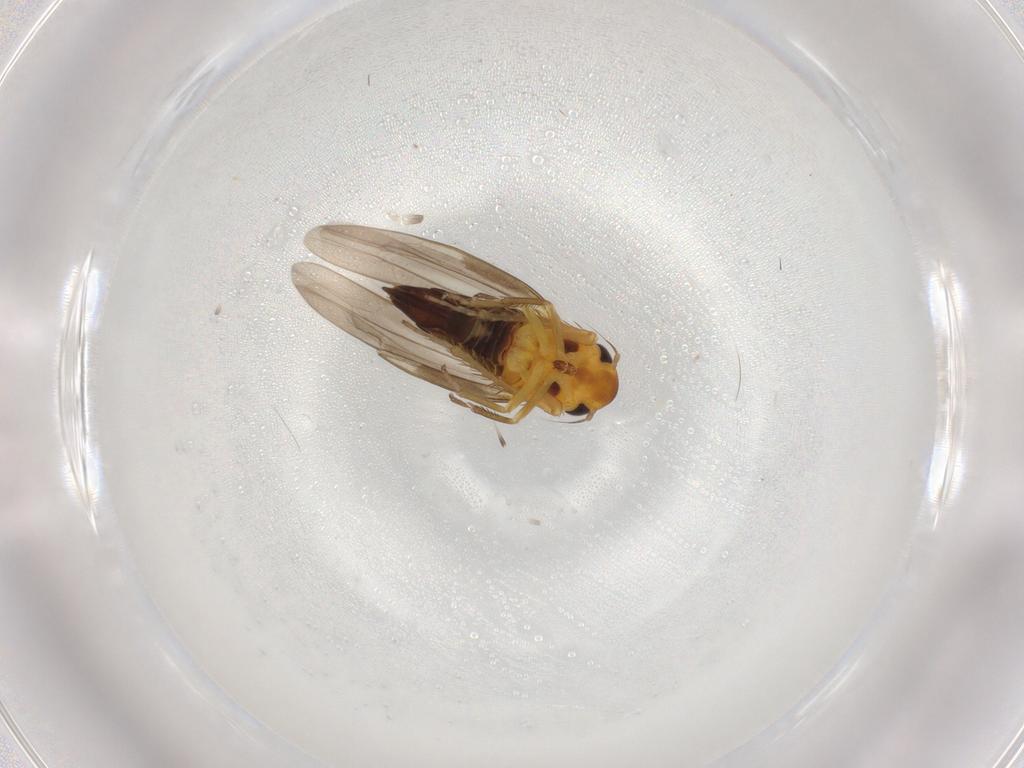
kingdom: Animalia
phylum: Arthropoda
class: Insecta
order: Hemiptera
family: Cicadellidae
